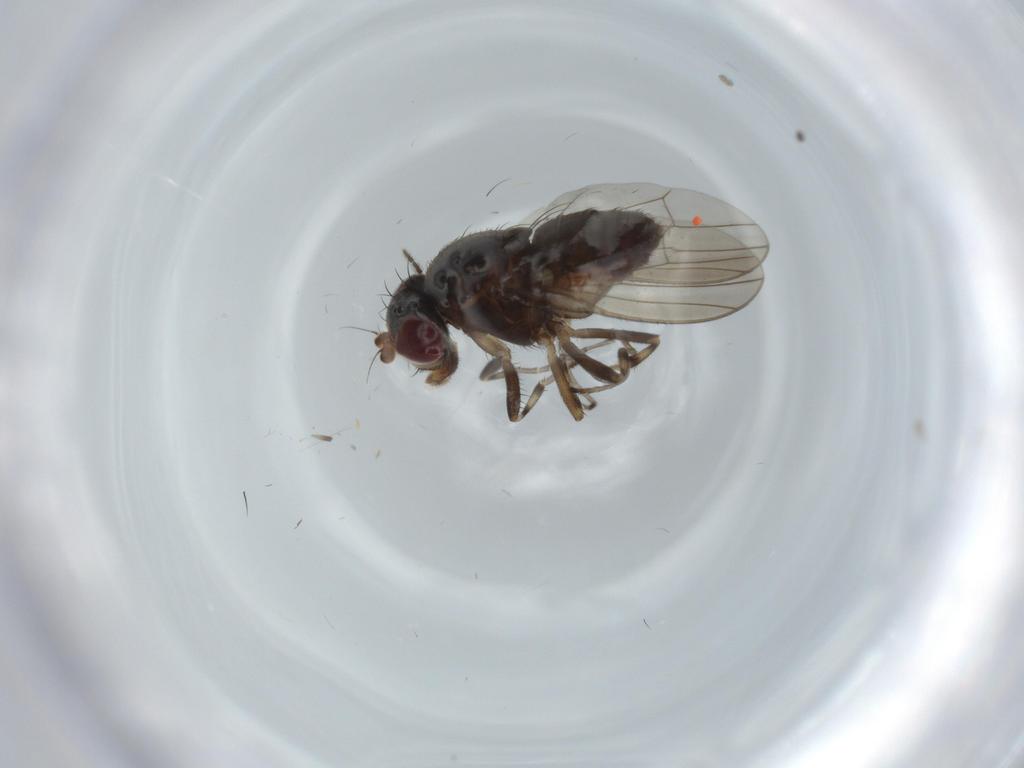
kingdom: Animalia
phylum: Arthropoda
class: Insecta
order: Diptera
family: Heleomyzidae
